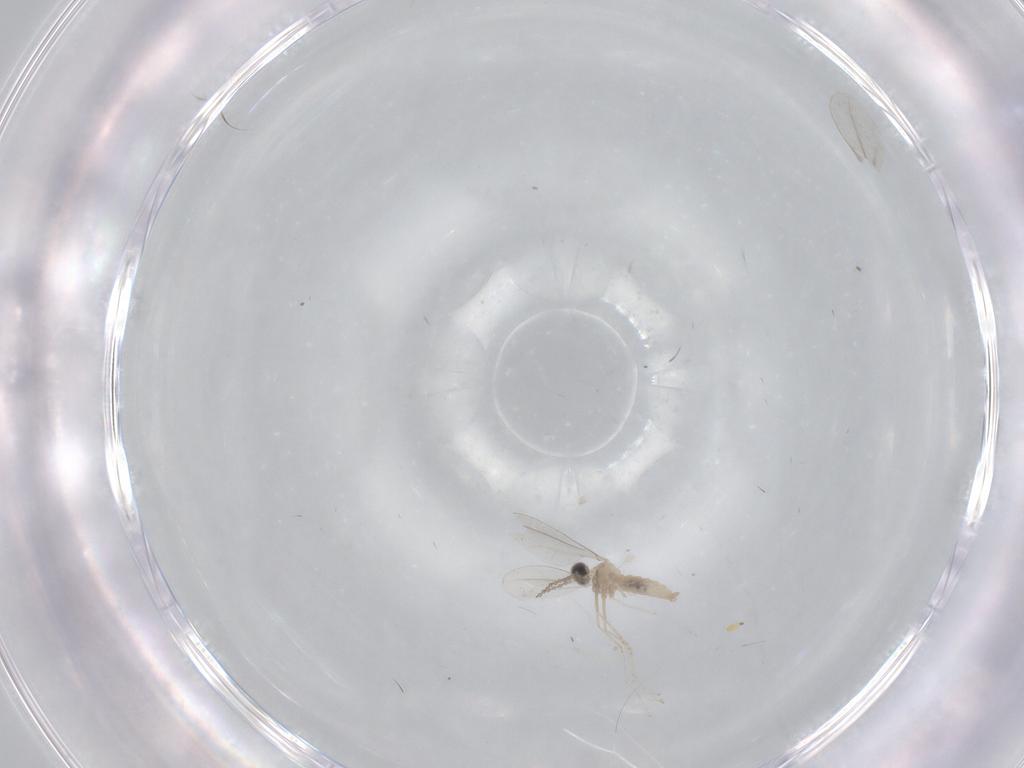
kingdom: Animalia
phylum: Arthropoda
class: Insecta
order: Diptera
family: Cecidomyiidae
